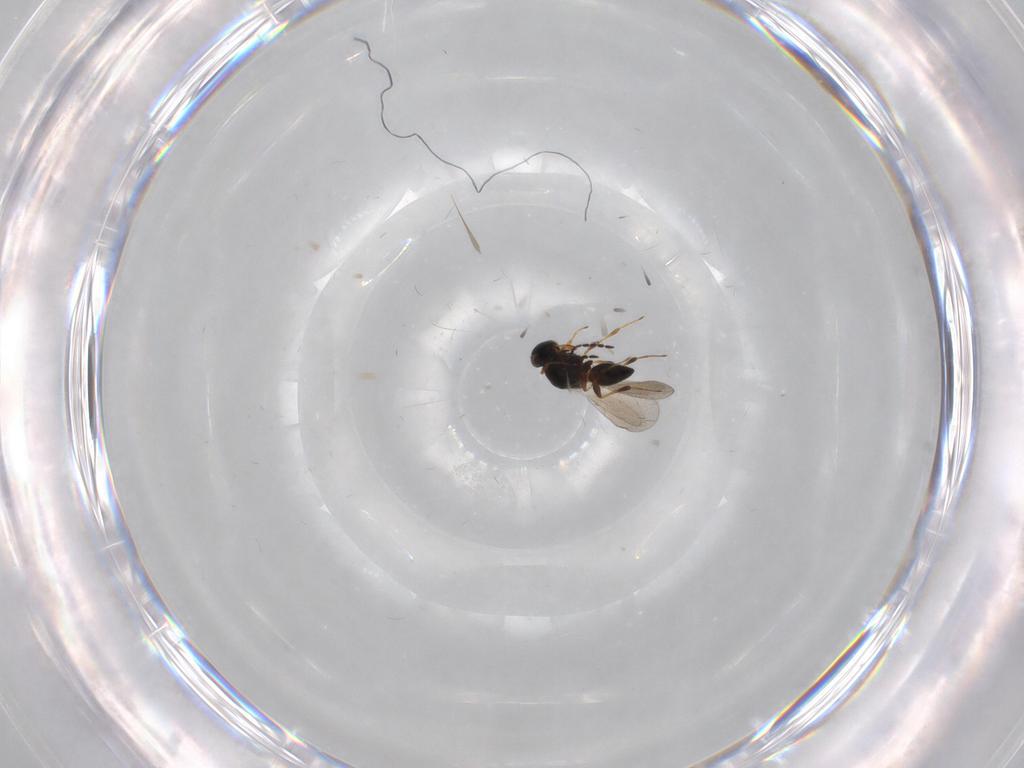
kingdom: Animalia
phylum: Arthropoda
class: Insecta
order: Hymenoptera
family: Platygastridae
